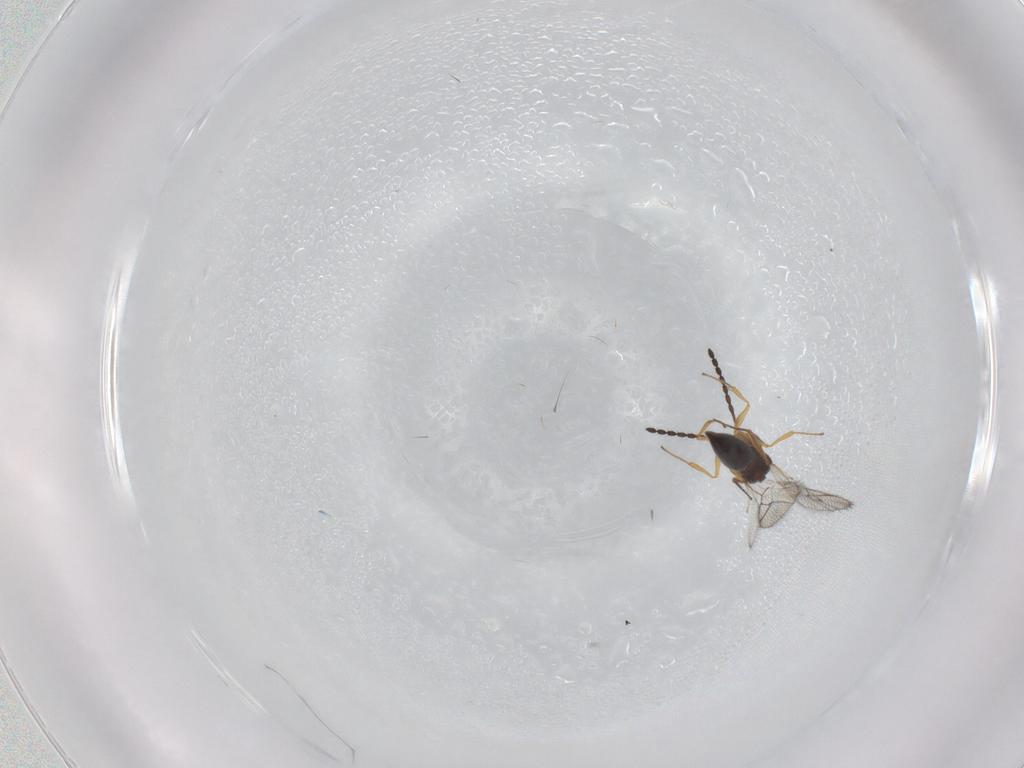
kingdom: Animalia
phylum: Arthropoda
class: Insecta
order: Hymenoptera
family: Figitidae
